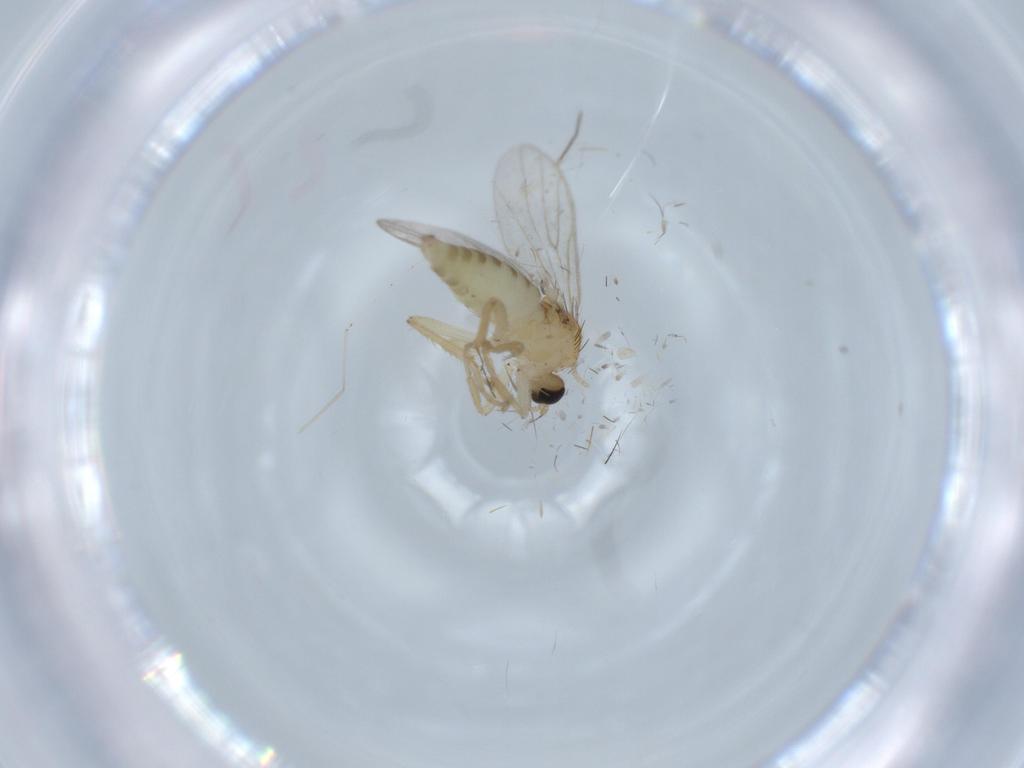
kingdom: Animalia
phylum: Arthropoda
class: Insecta
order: Diptera
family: Hybotidae
